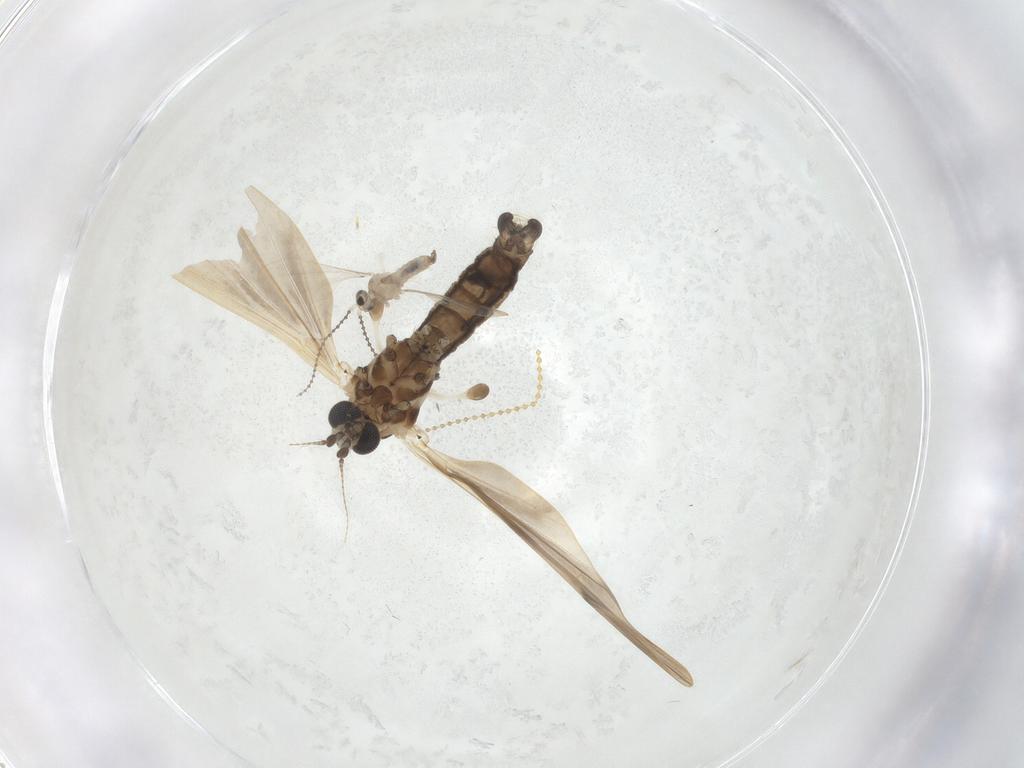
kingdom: Animalia
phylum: Arthropoda
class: Insecta
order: Diptera
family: Limoniidae
